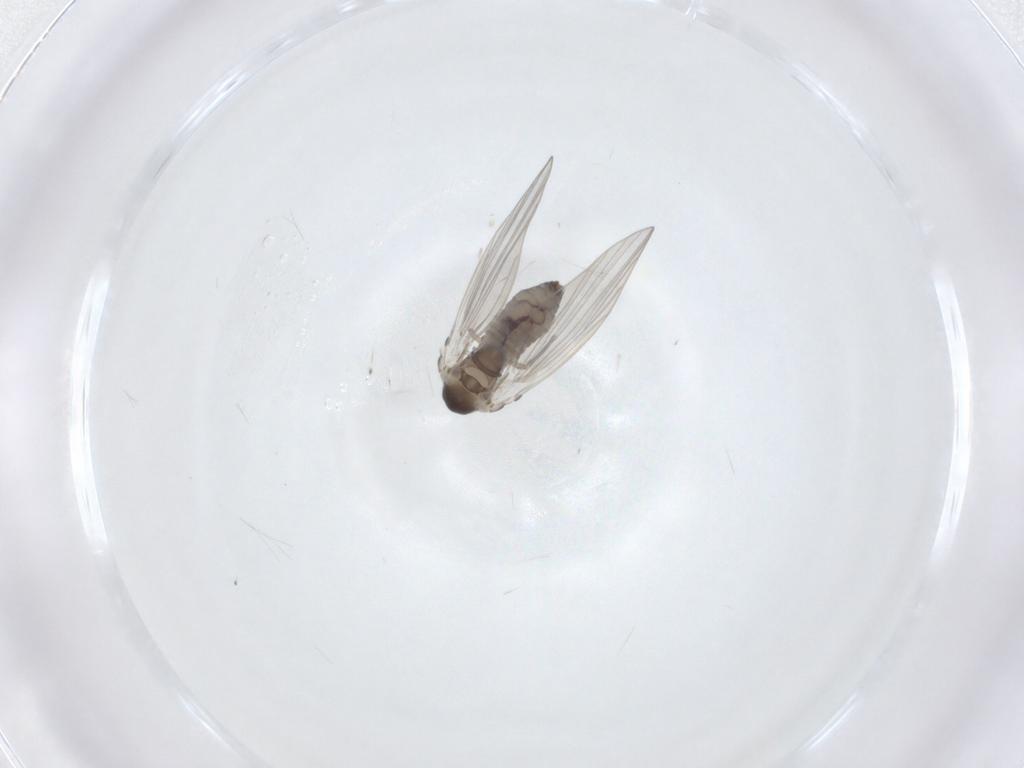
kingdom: Animalia
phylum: Arthropoda
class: Insecta
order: Diptera
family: Psychodidae
